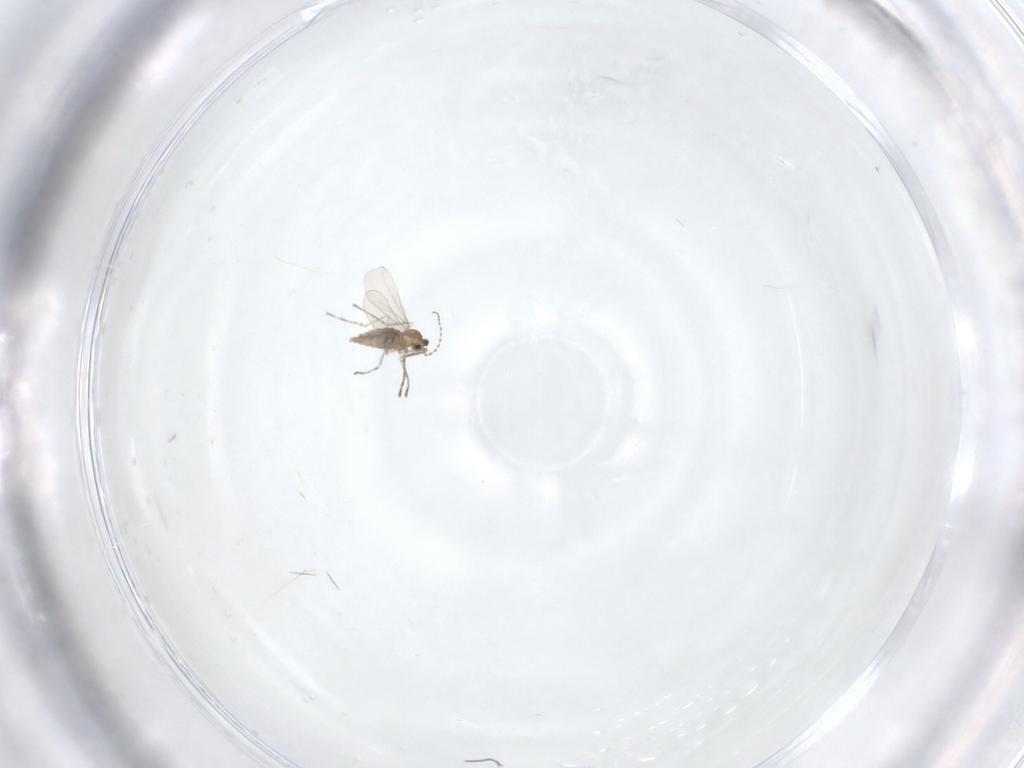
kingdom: Animalia
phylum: Arthropoda
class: Insecta
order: Diptera
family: Cecidomyiidae
